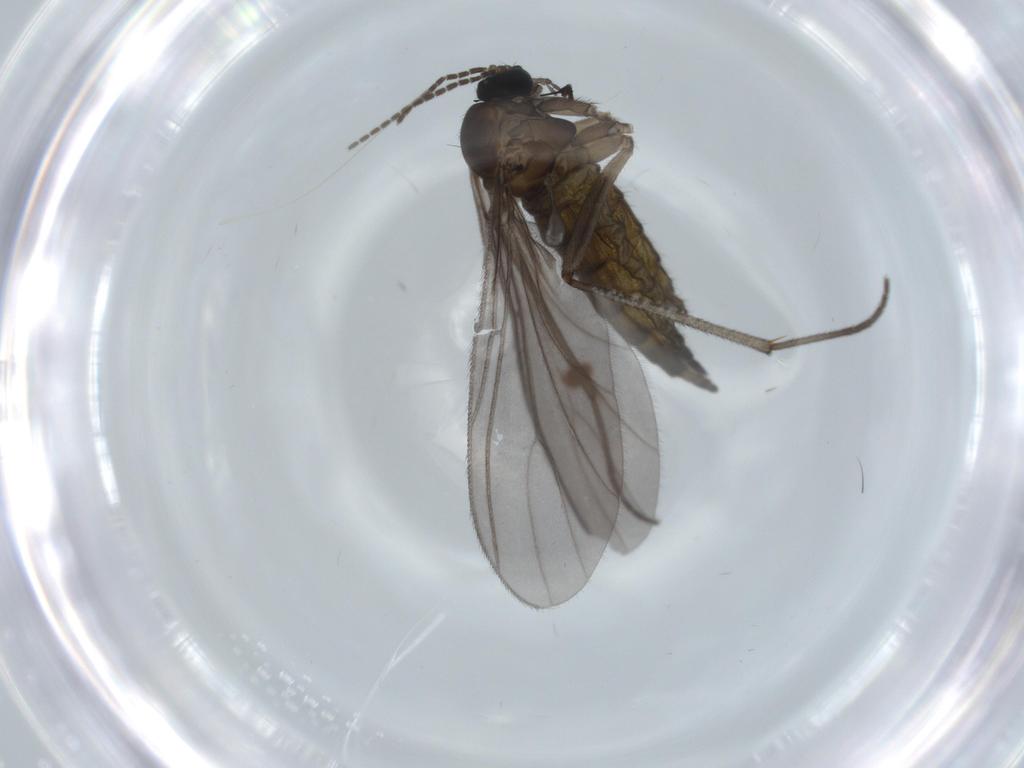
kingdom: Animalia
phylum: Arthropoda
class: Insecta
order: Diptera
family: Sciaridae
